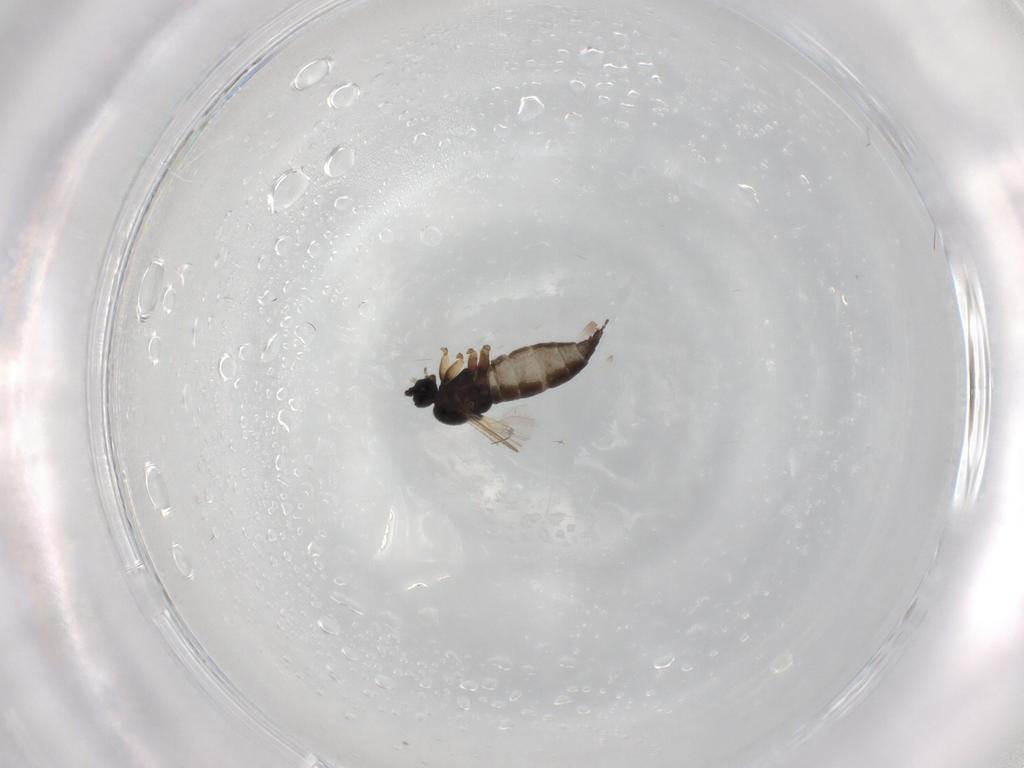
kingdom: Animalia
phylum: Arthropoda
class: Insecta
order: Diptera
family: Sciaridae
